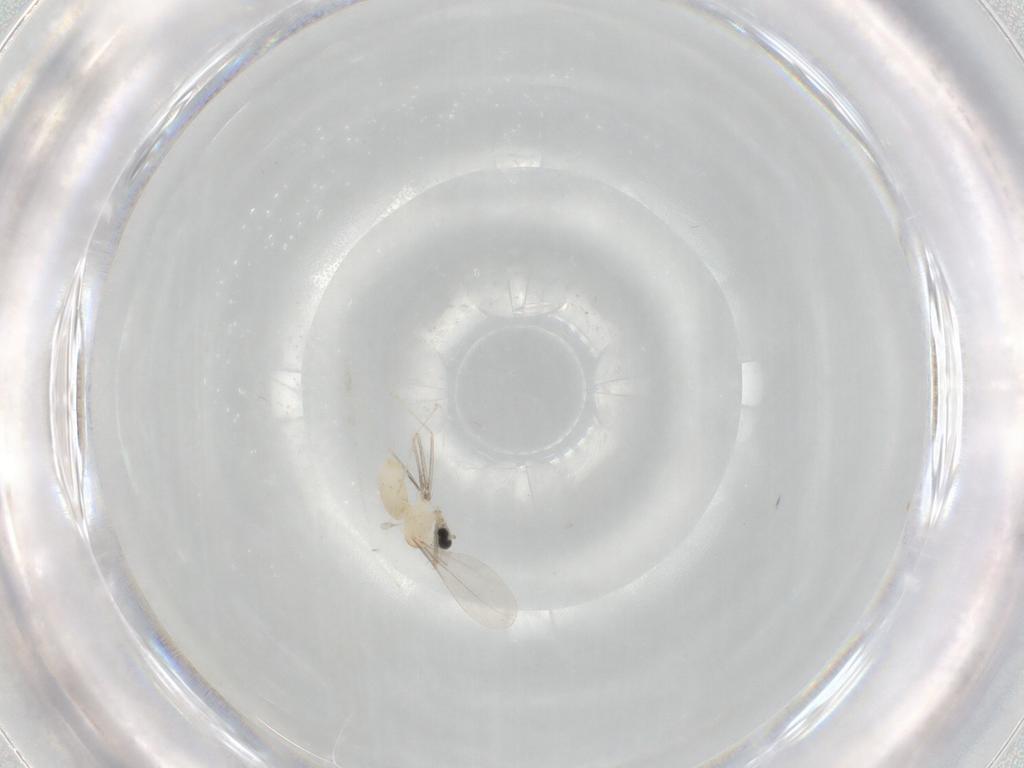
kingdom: Animalia
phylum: Arthropoda
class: Insecta
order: Diptera
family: Cecidomyiidae
